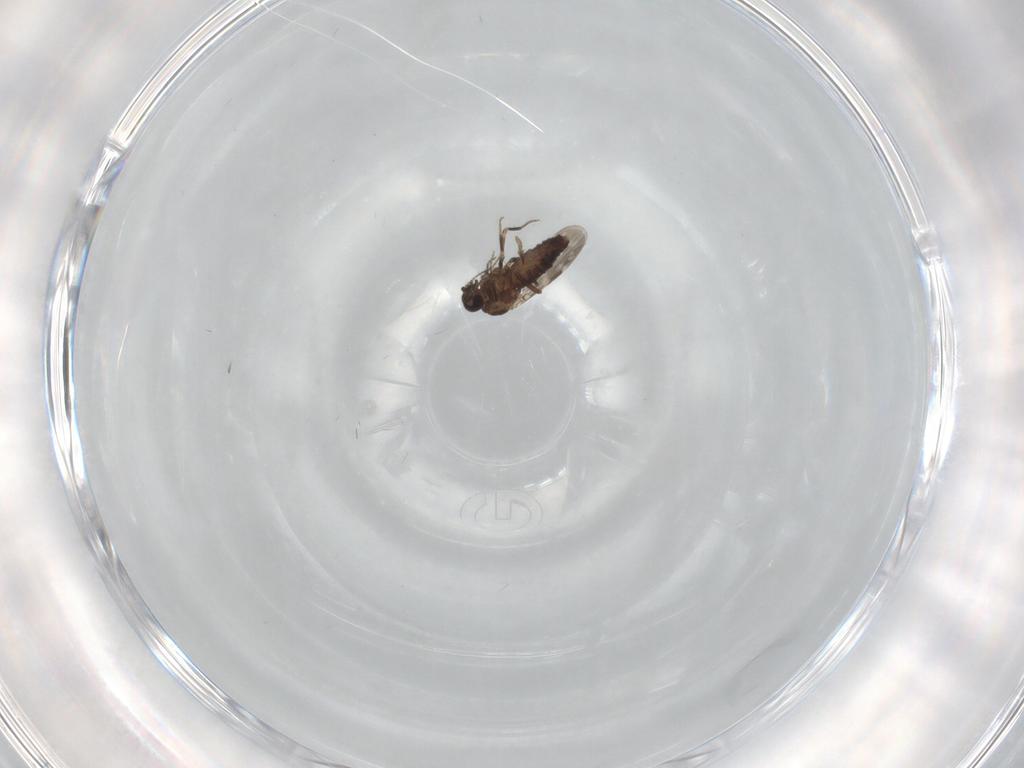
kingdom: Animalia
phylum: Arthropoda
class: Insecta
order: Diptera
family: Ceratopogonidae
